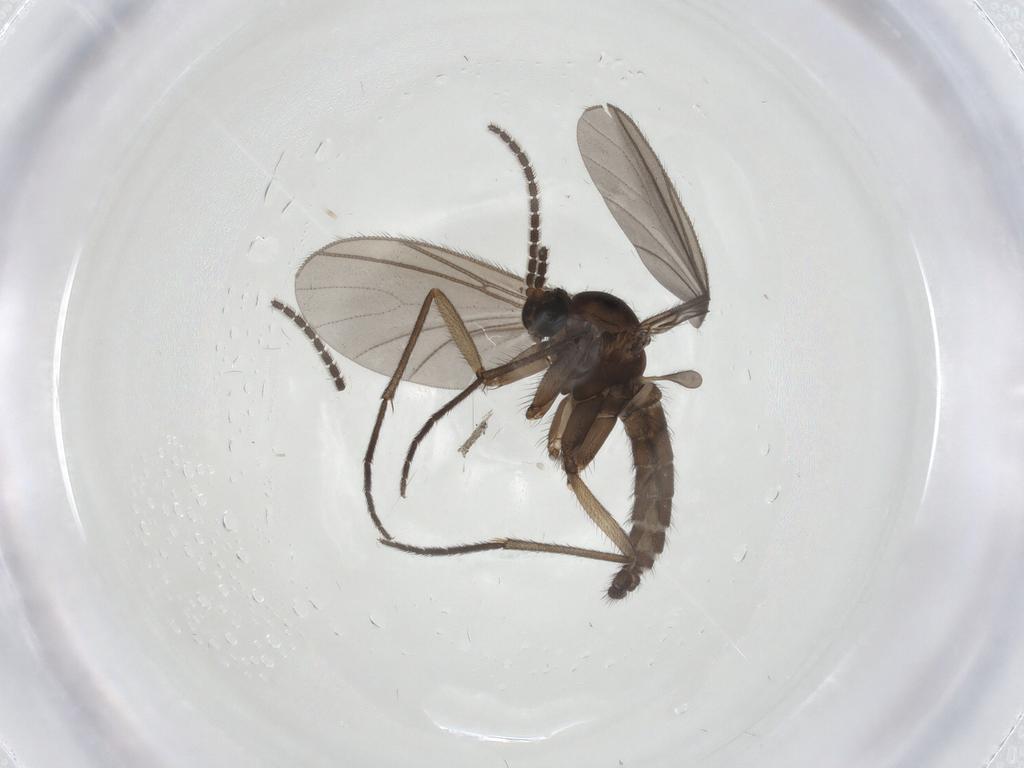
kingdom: Animalia
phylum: Arthropoda
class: Insecta
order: Diptera
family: Sciaridae
